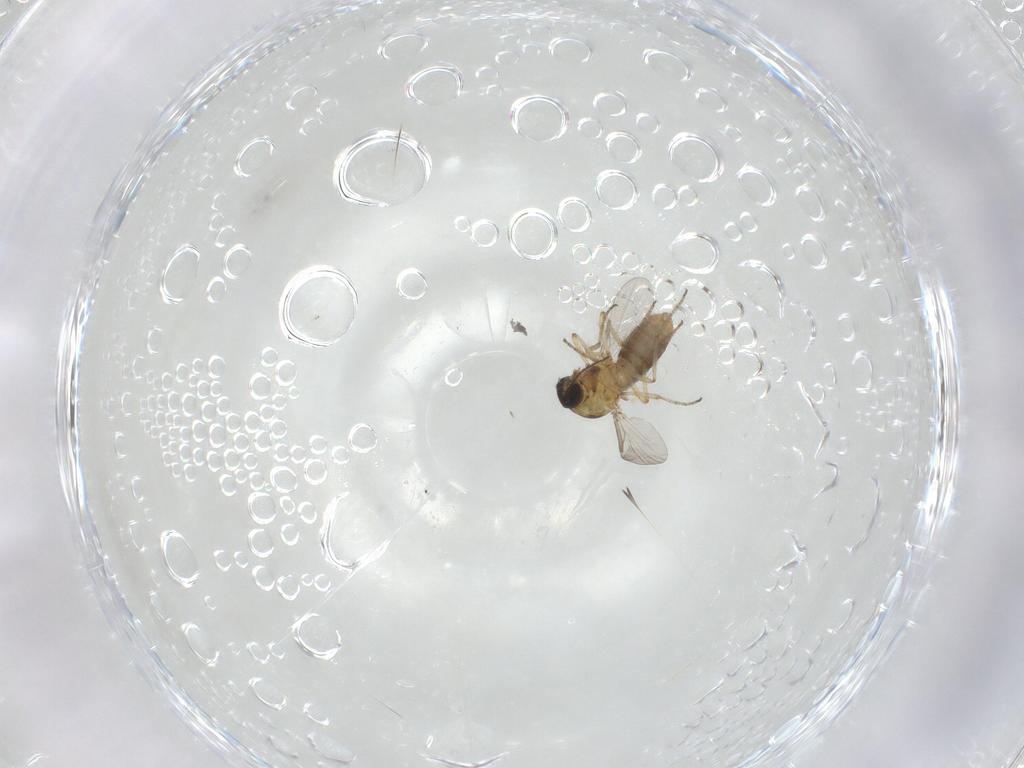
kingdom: Animalia
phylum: Arthropoda
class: Insecta
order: Diptera
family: Ceratopogonidae
